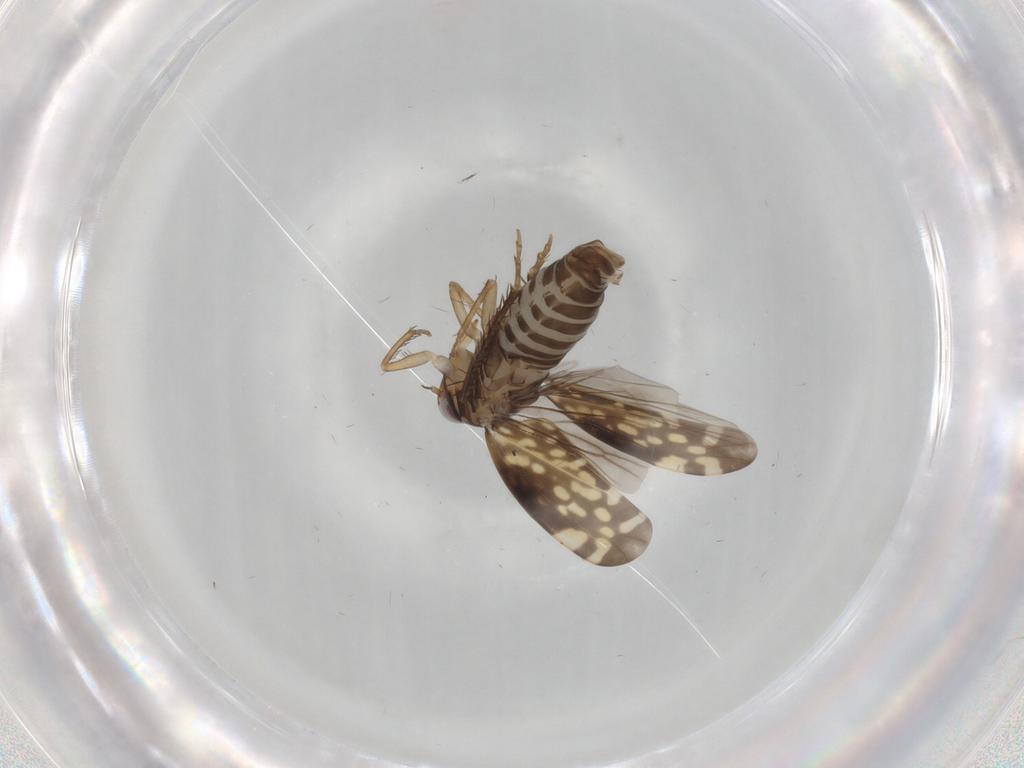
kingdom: Animalia
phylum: Arthropoda
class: Insecta
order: Hemiptera
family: Cicadellidae
